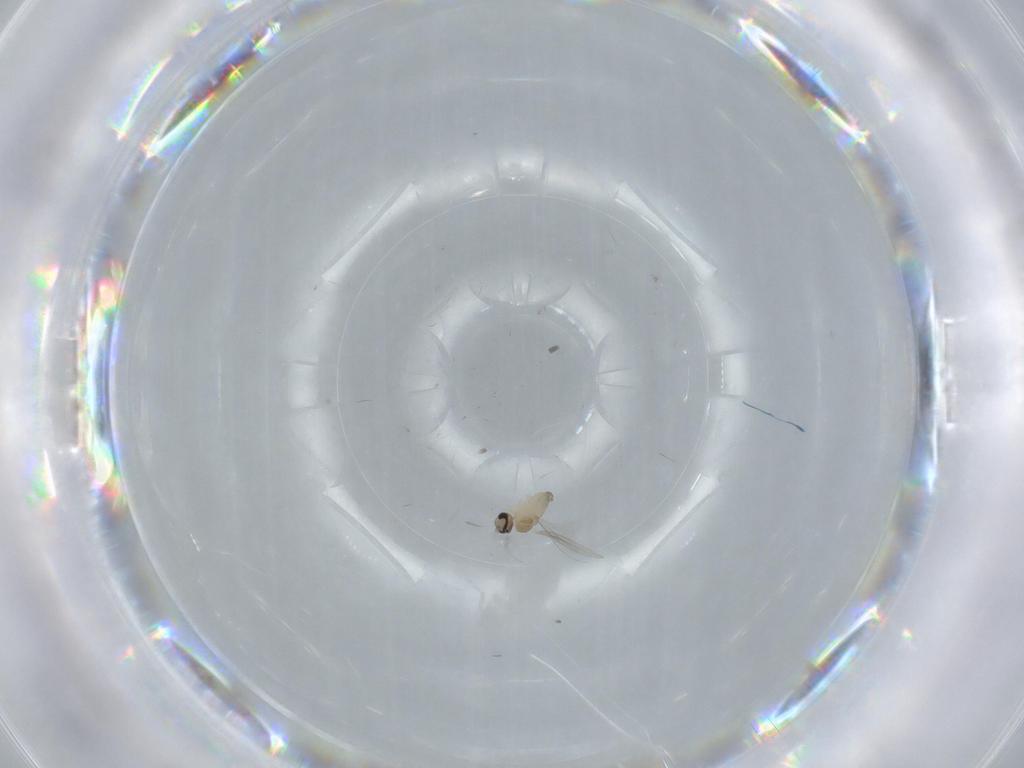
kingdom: Animalia
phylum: Arthropoda
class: Insecta
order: Diptera
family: Cecidomyiidae
